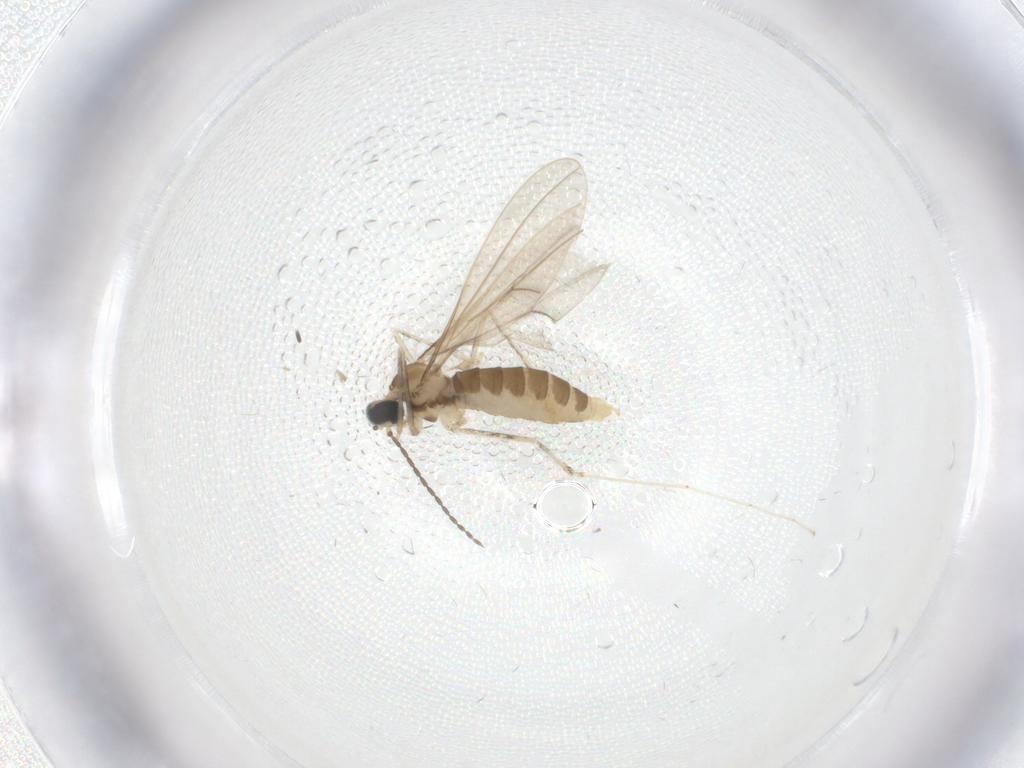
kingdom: Animalia
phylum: Arthropoda
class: Insecta
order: Diptera
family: Cecidomyiidae
